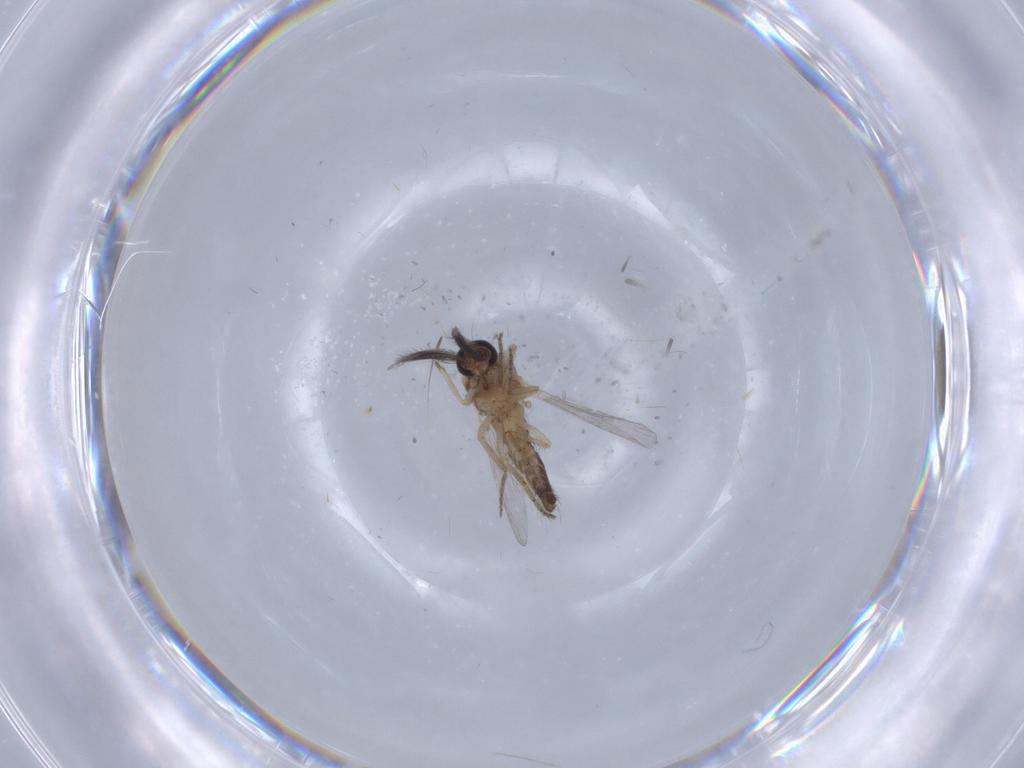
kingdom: Animalia
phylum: Arthropoda
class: Insecta
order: Diptera
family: Ceratopogonidae
